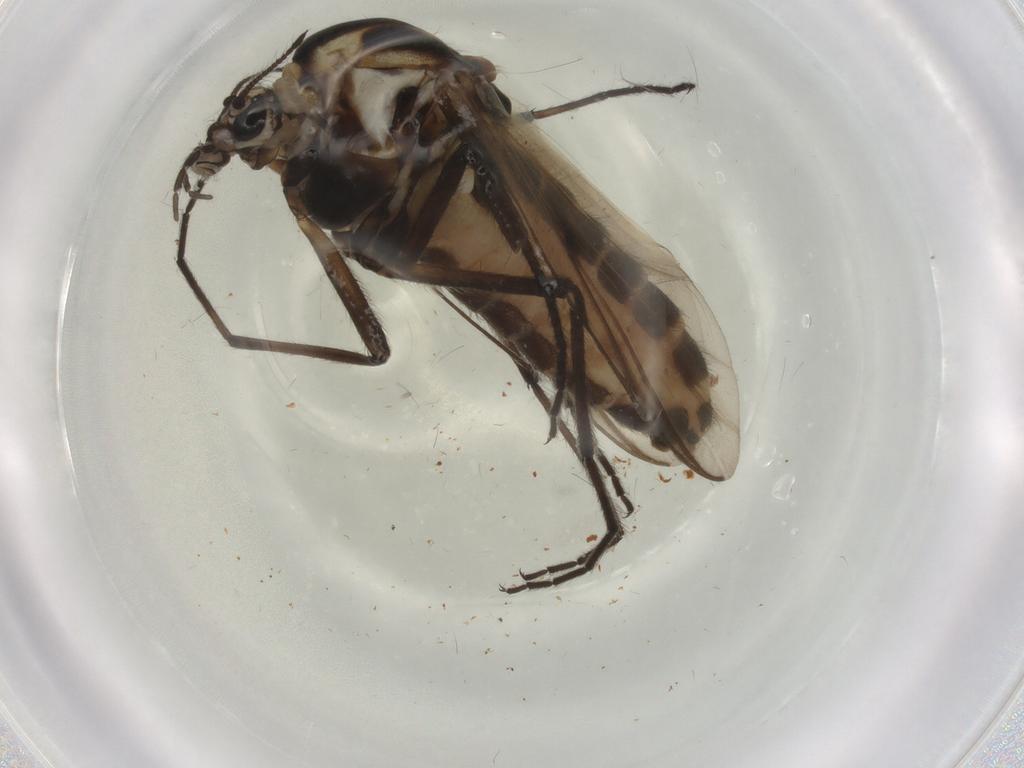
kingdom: Animalia
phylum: Arthropoda
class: Insecta
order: Diptera
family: Chironomidae
